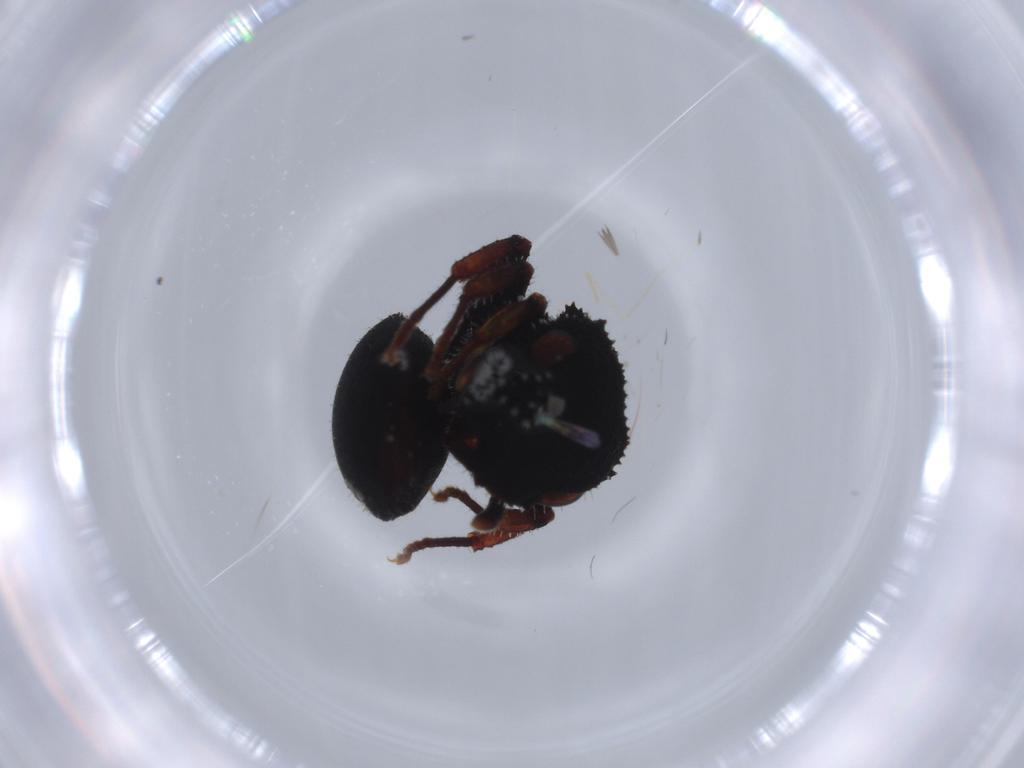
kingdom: Animalia
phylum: Arthropoda
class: Insecta
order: Hymenoptera
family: Formicidae
